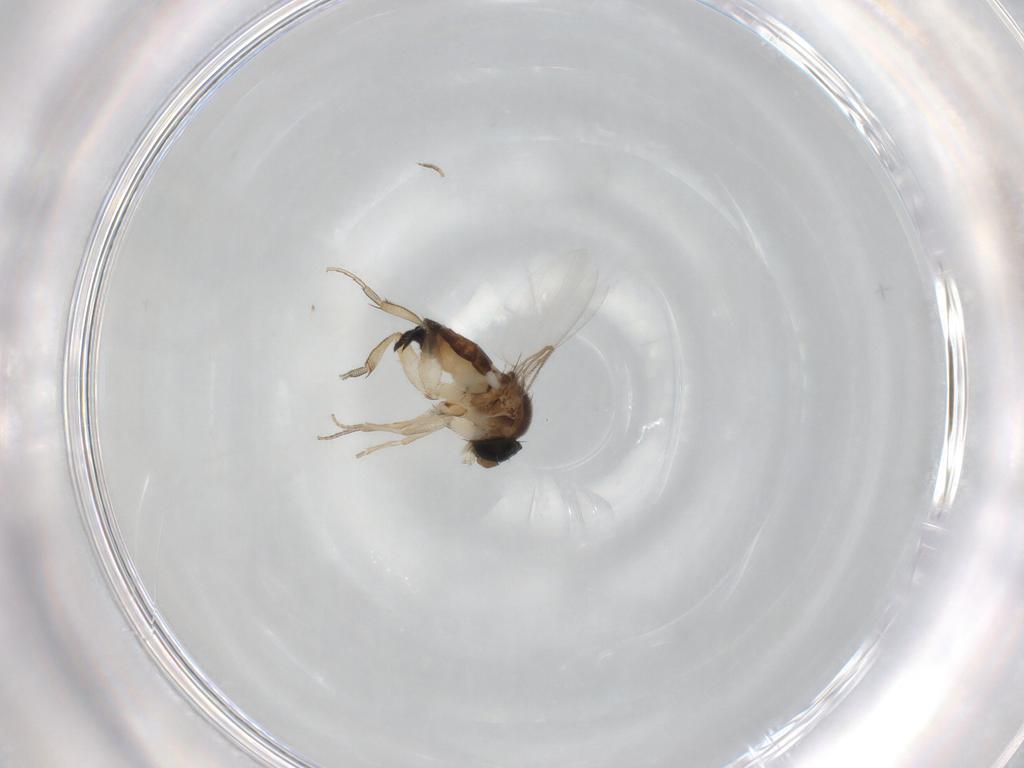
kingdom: Animalia
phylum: Arthropoda
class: Insecta
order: Diptera
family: Phoridae
